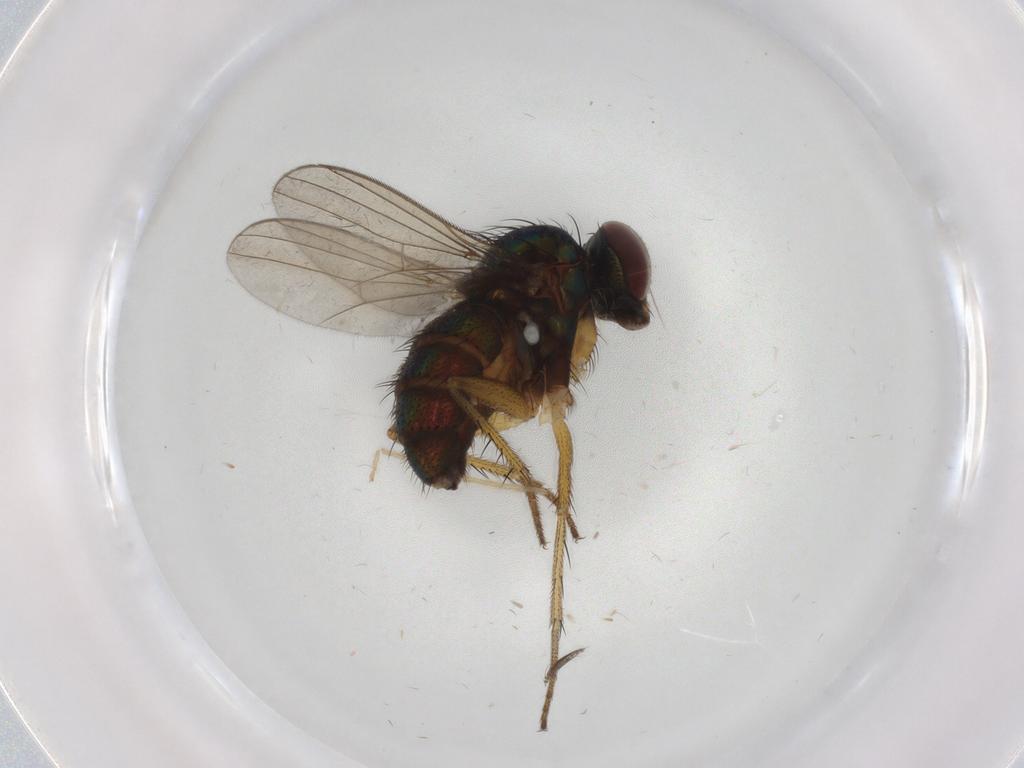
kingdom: Animalia
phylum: Arthropoda
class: Insecta
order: Diptera
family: Dolichopodidae
